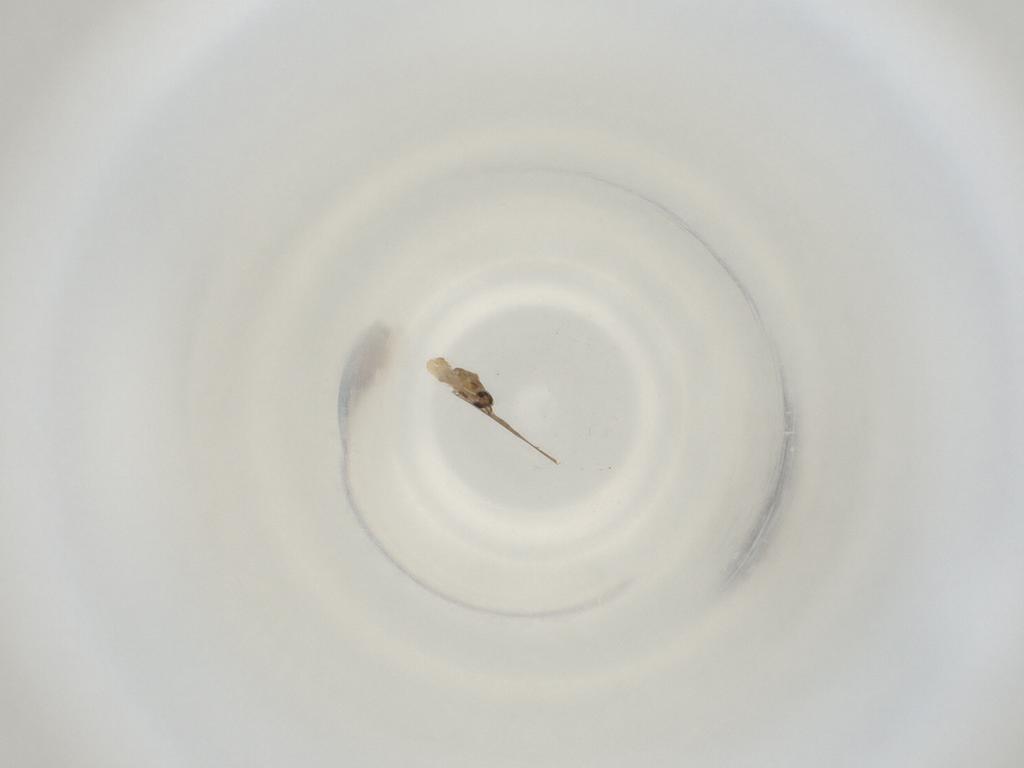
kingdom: Animalia
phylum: Arthropoda
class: Insecta
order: Diptera
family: Cecidomyiidae
